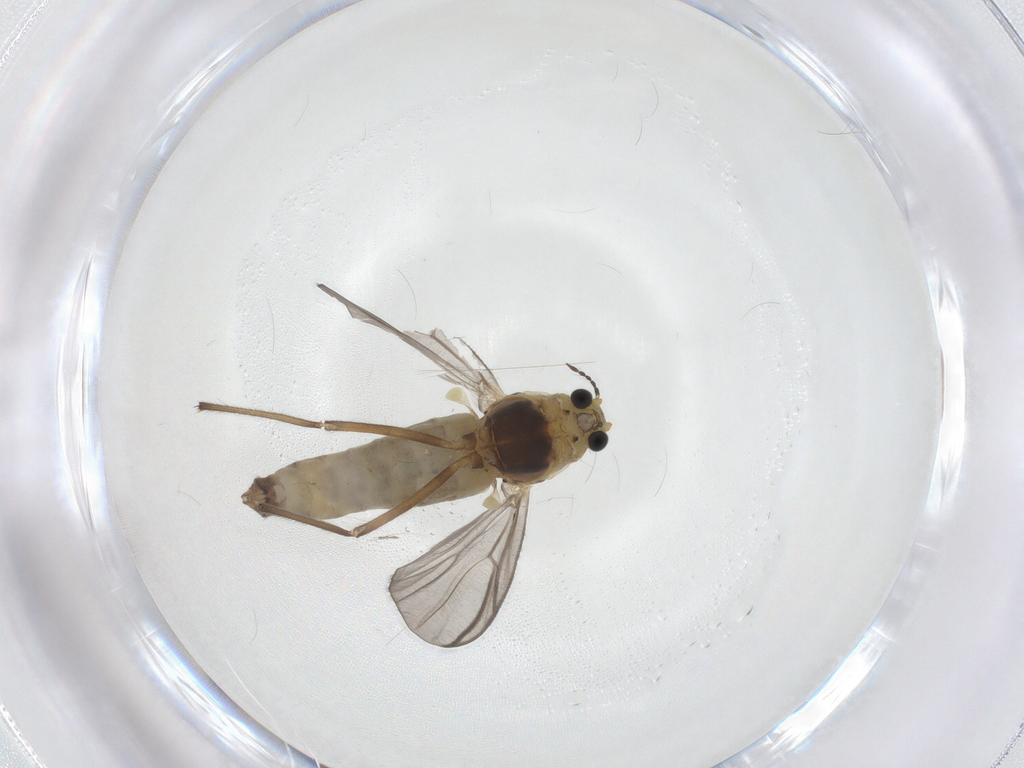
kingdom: Animalia
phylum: Arthropoda
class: Insecta
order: Diptera
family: Chironomidae
